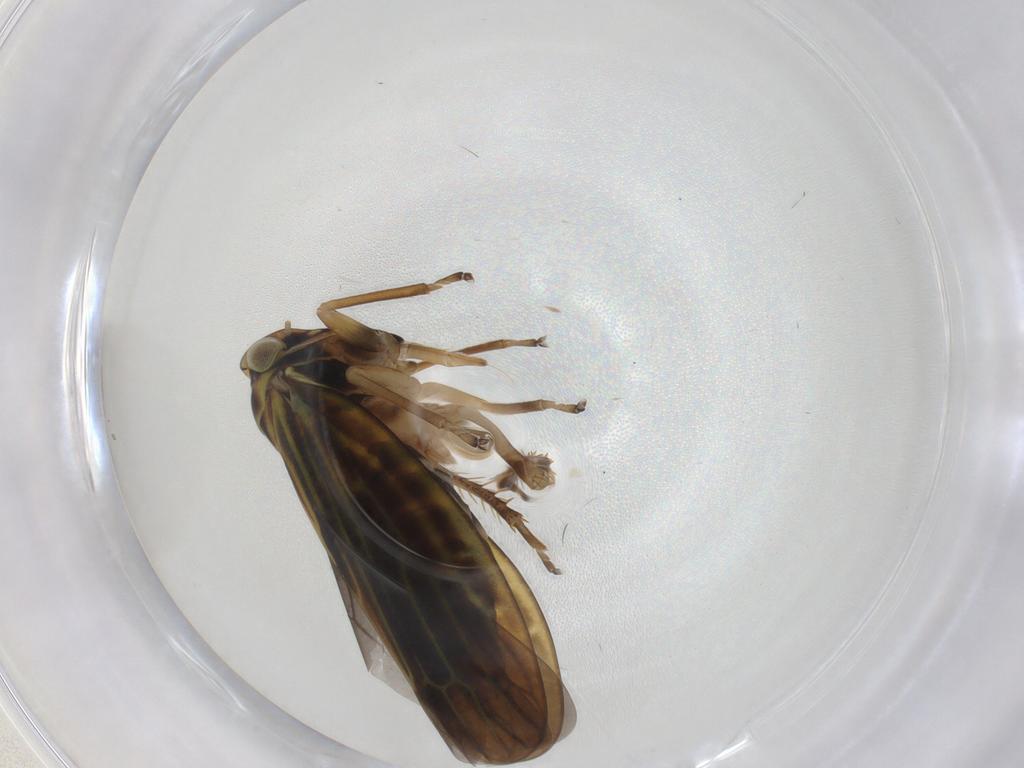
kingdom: Animalia
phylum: Arthropoda
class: Insecta
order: Hemiptera
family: Cicadellidae
